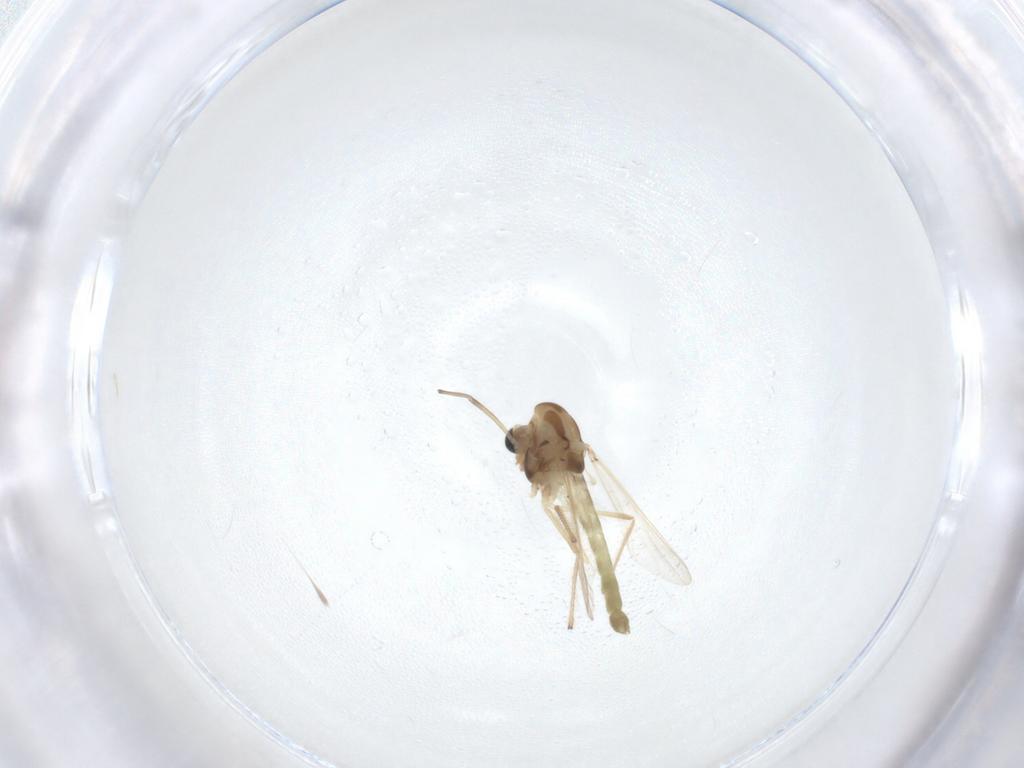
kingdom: Animalia
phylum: Arthropoda
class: Insecta
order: Diptera
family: Chironomidae
